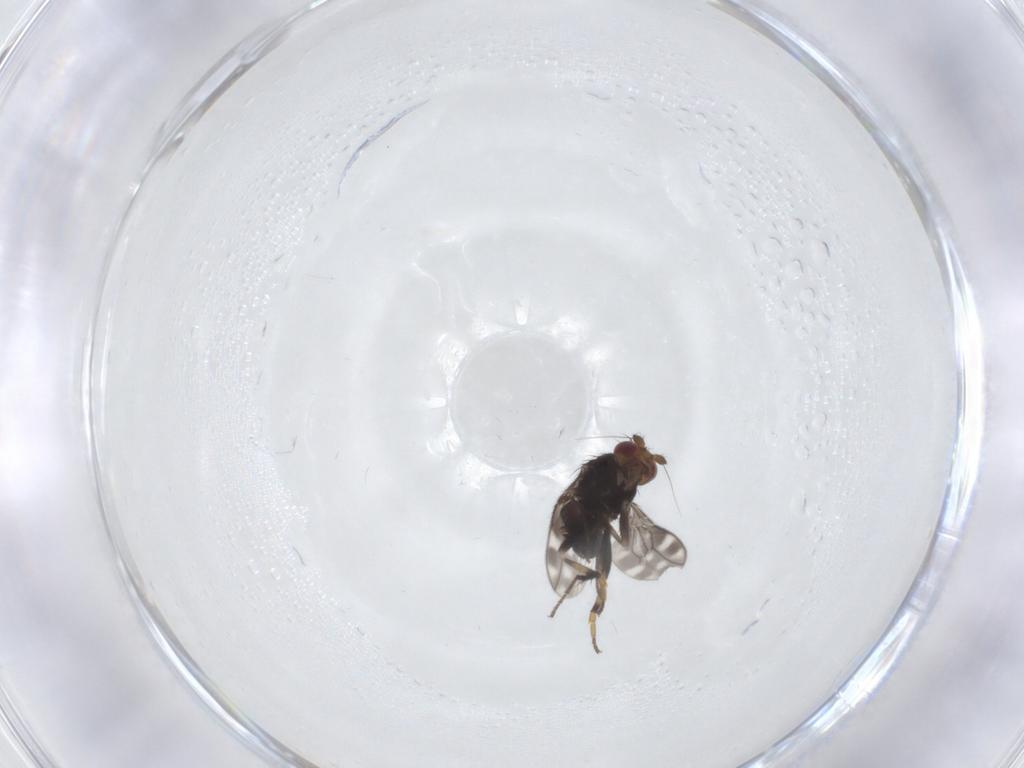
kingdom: Animalia
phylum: Arthropoda
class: Insecta
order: Diptera
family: Sphaeroceridae
